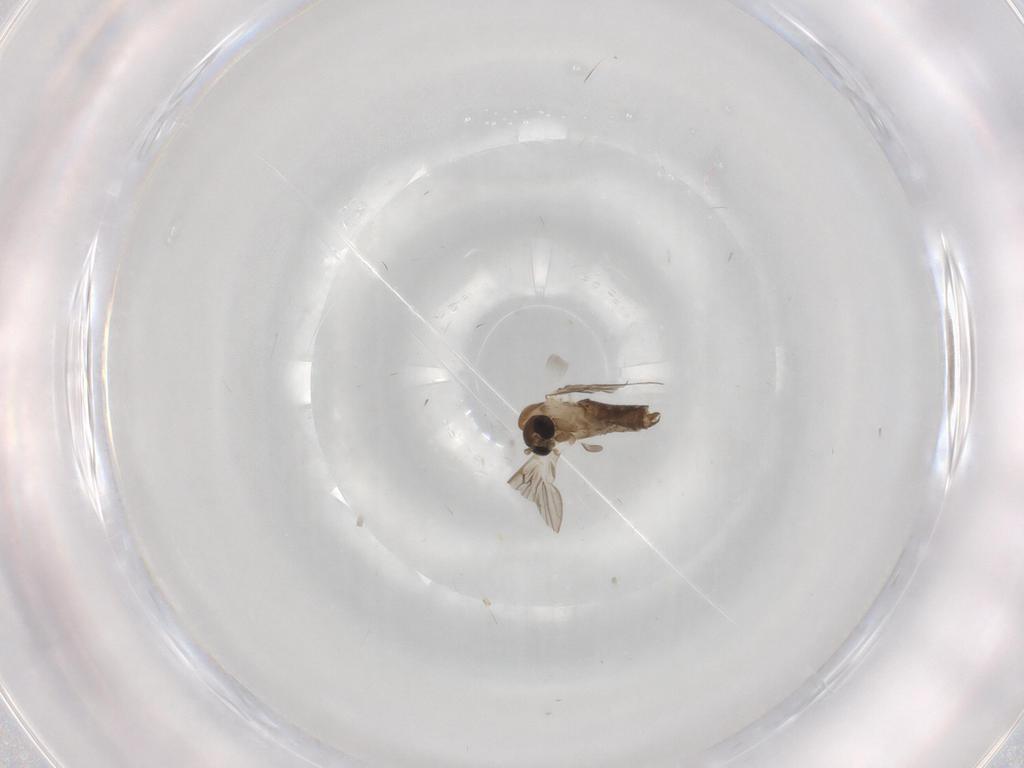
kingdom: Animalia
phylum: Arthropoda
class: Insecta
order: Diptera
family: Psychodidae
